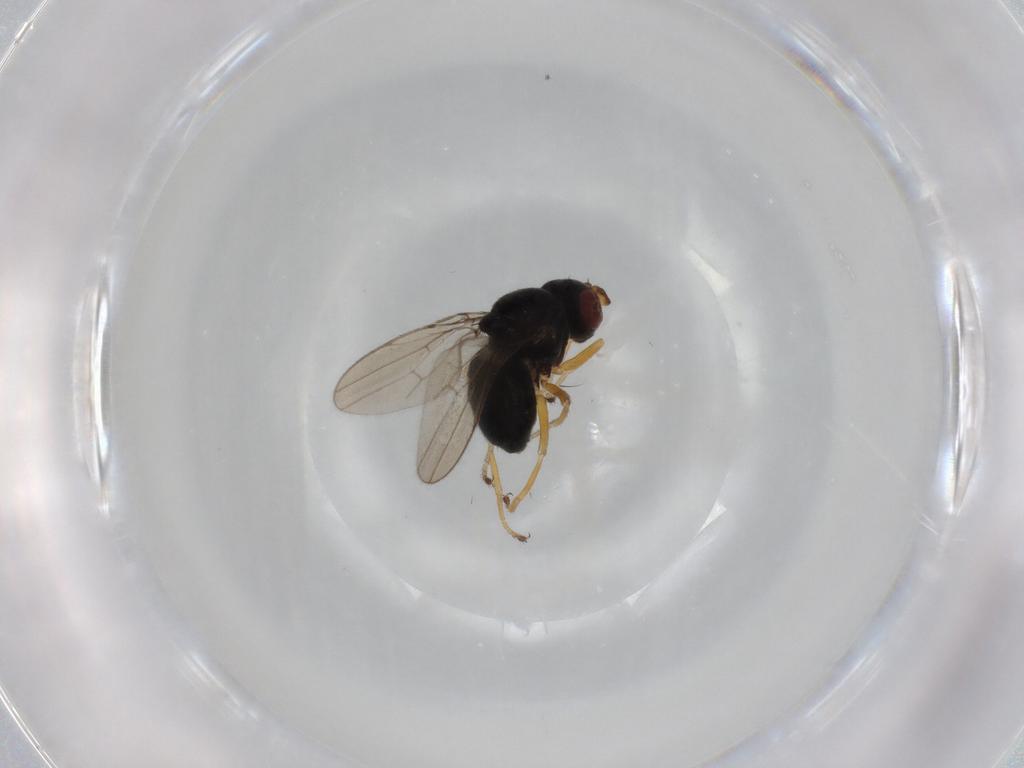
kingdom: Animalia
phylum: Arthropoda
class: Insecta
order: Diptera
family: Ephydridae
